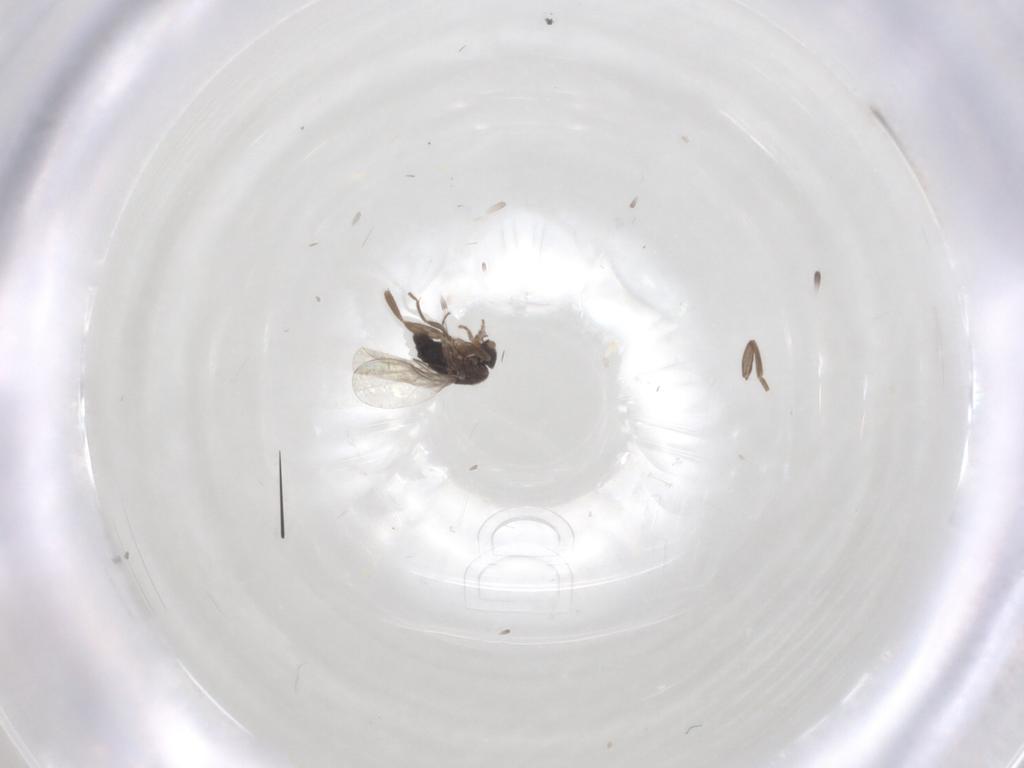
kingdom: Animalia
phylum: Arthropoda
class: Insecta
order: Diptera
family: Phoridae
